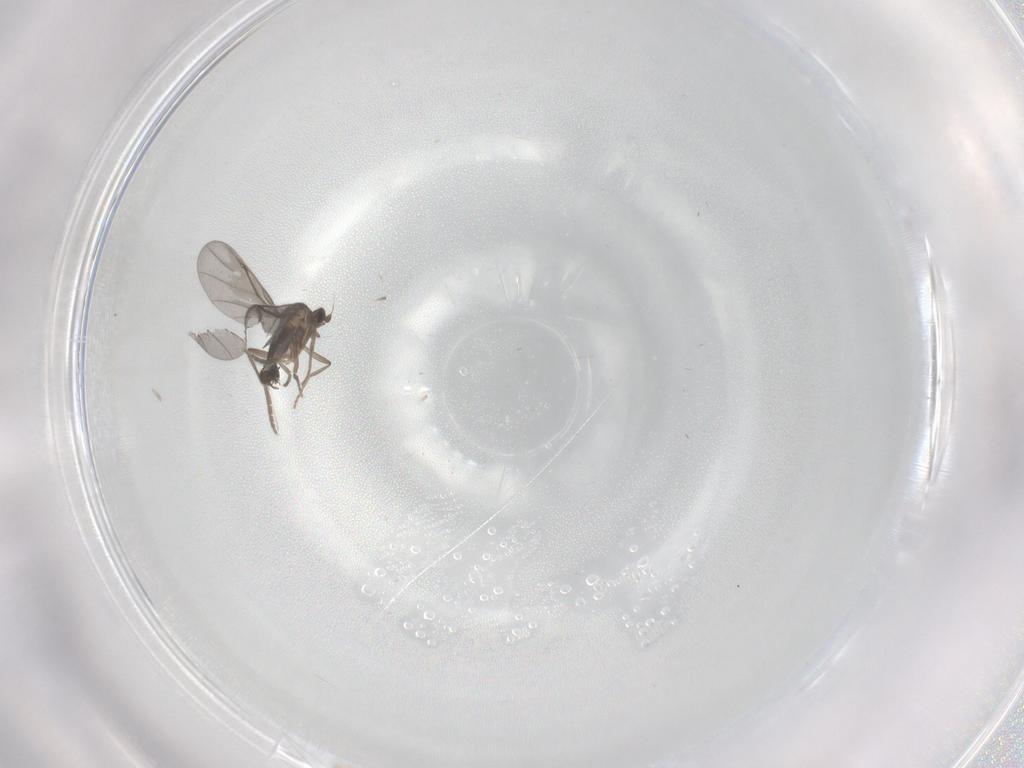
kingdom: Animalia
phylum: Arthropoda
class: Insecta
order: Diptera
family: Phoridae
